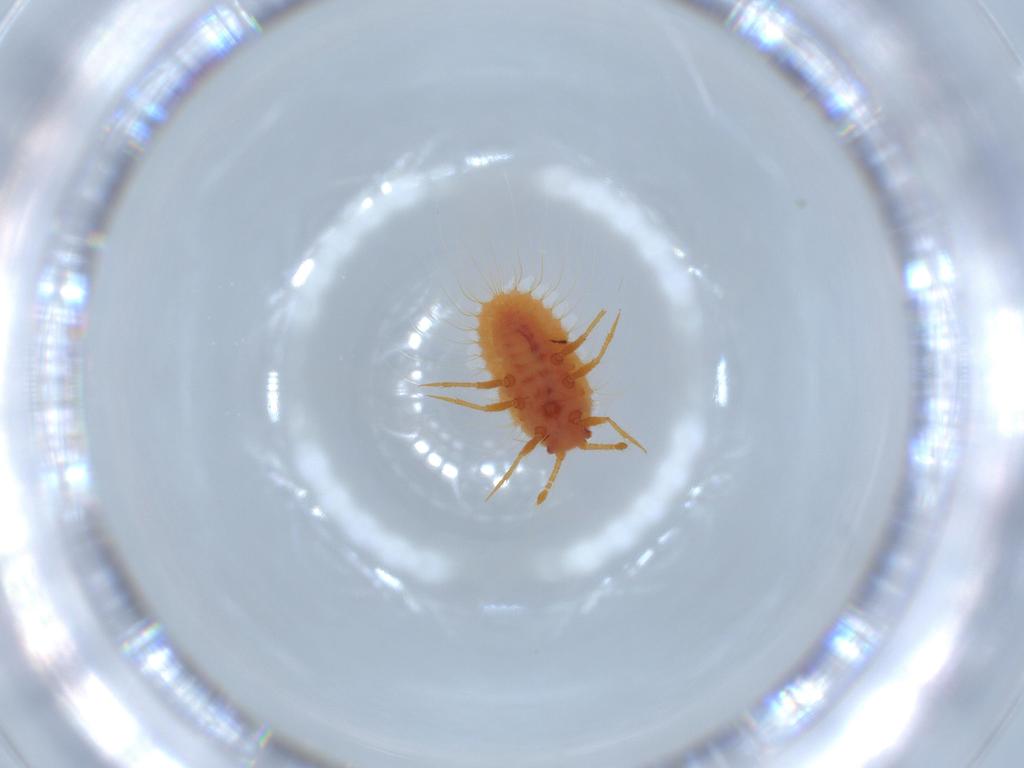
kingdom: Animalia
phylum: Arthropoda
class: Insecta
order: Hemiptera
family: Coccoidea_incertae_sedis
